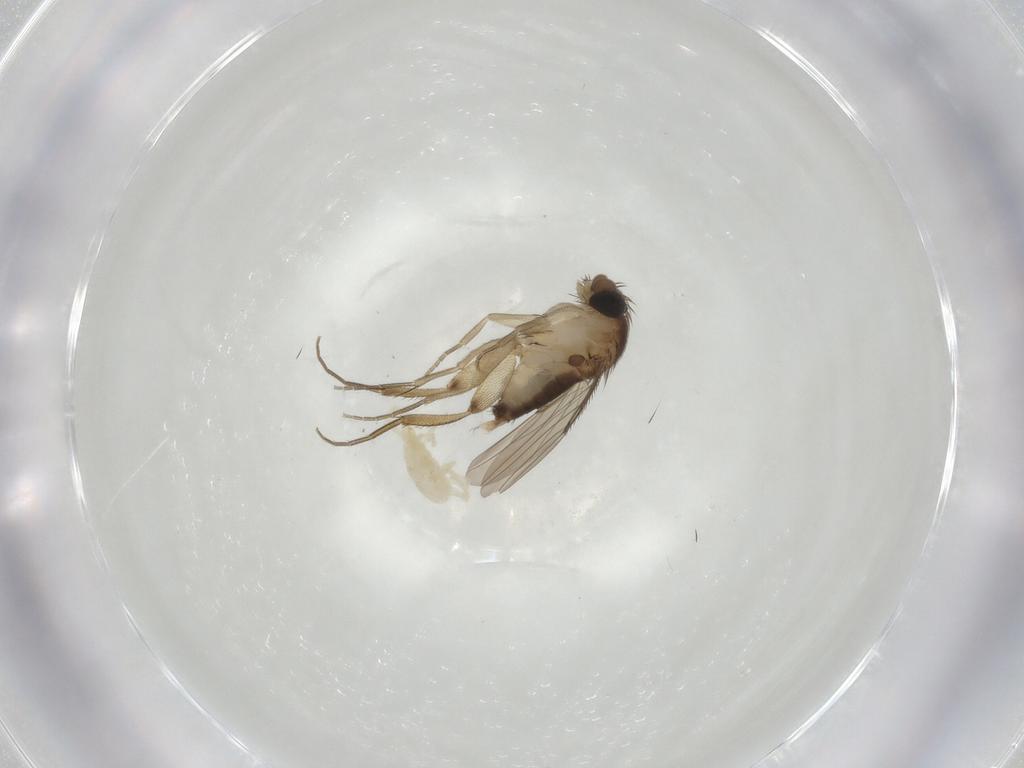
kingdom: Animalia
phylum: Arthropoda
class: Insecta
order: Diptera
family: Phoridae
